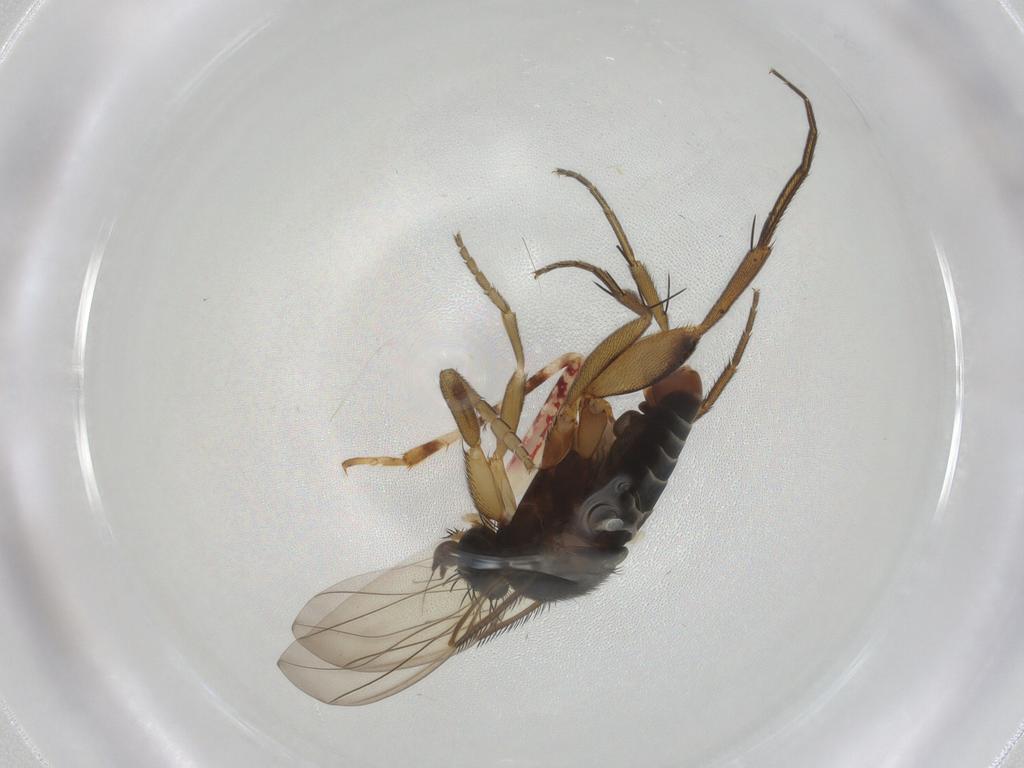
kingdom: Animalia
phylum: Arthropoda
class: Insecta
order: Diptera
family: Phoridae
